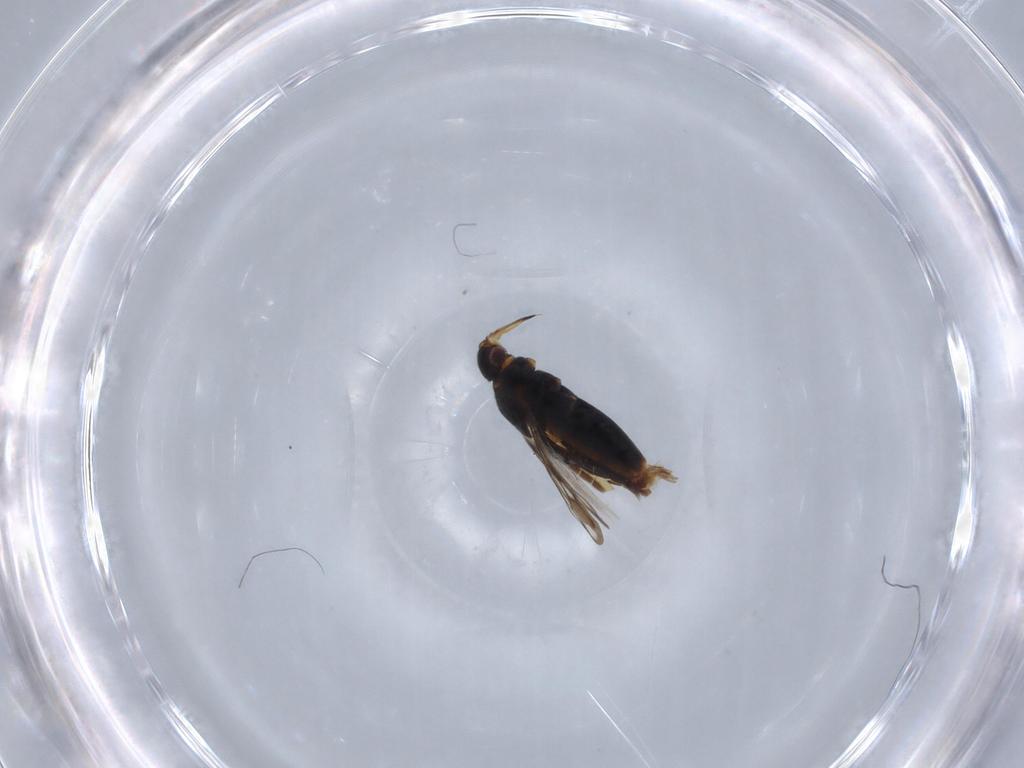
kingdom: Animalia
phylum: Arthropoda
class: Insecta
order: Hemiptera
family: Veliidae
